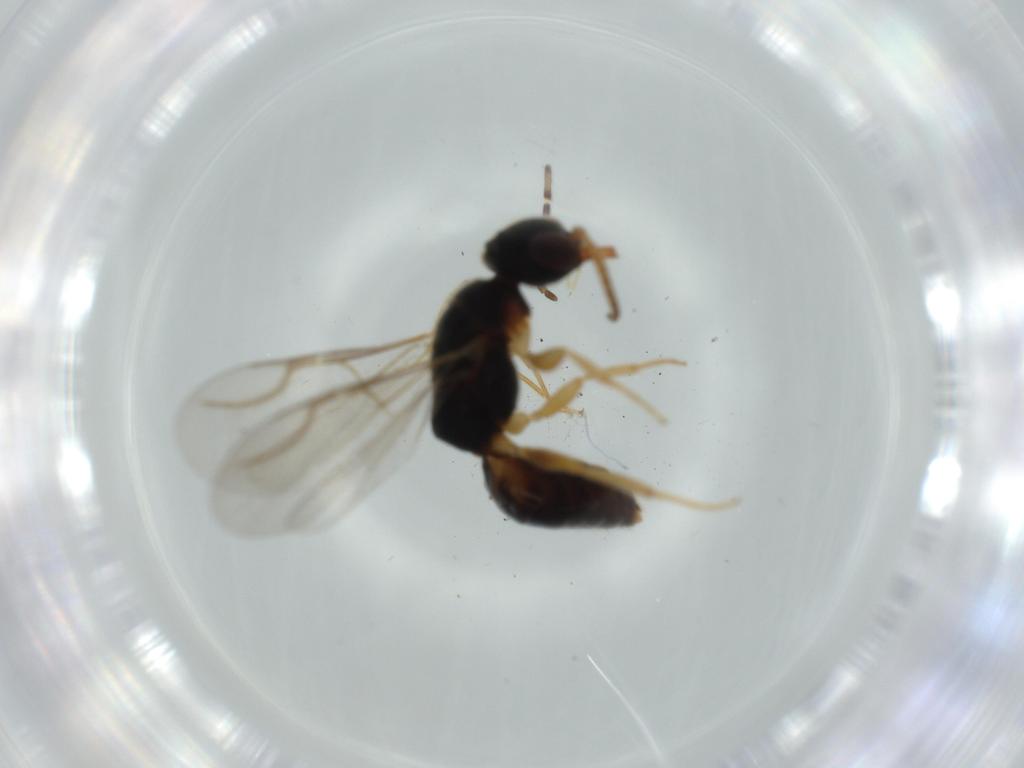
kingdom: Animalia
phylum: Arthropoda
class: Insecta
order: Hymenoptera
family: Bethylidae
